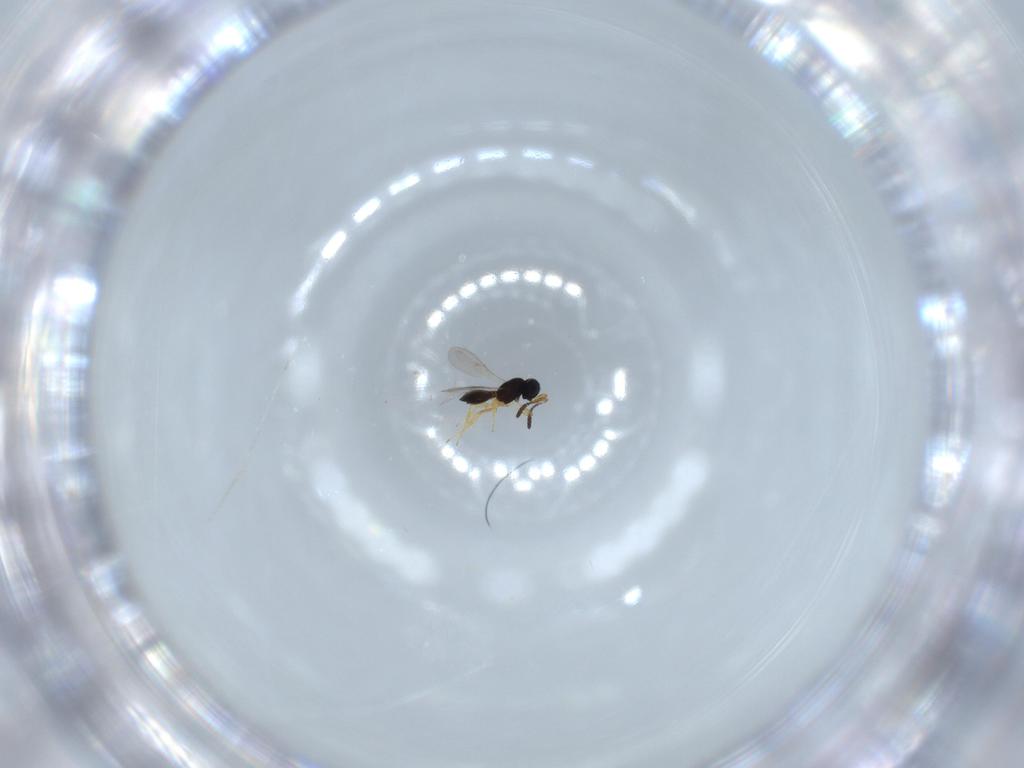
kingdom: Animalia
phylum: Arthropoda
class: Insecta
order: Hymenoptera
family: Scelionidae
